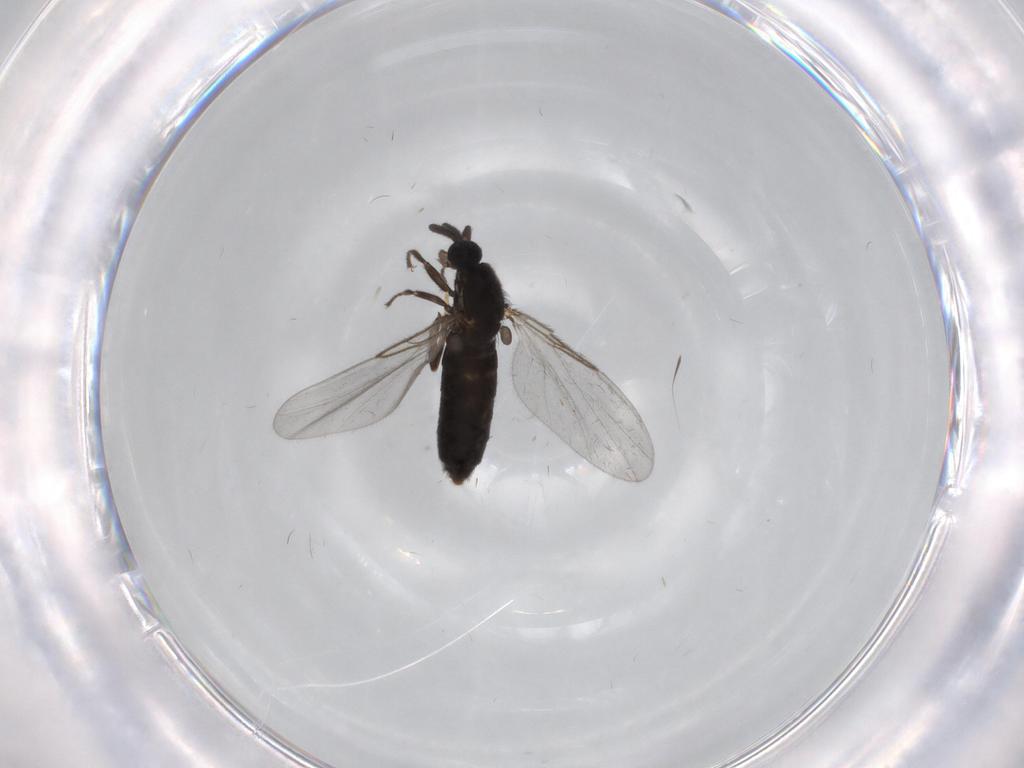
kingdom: Animalia
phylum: Arthropoda
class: Insecta
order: Diptera
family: Scatopsidae
